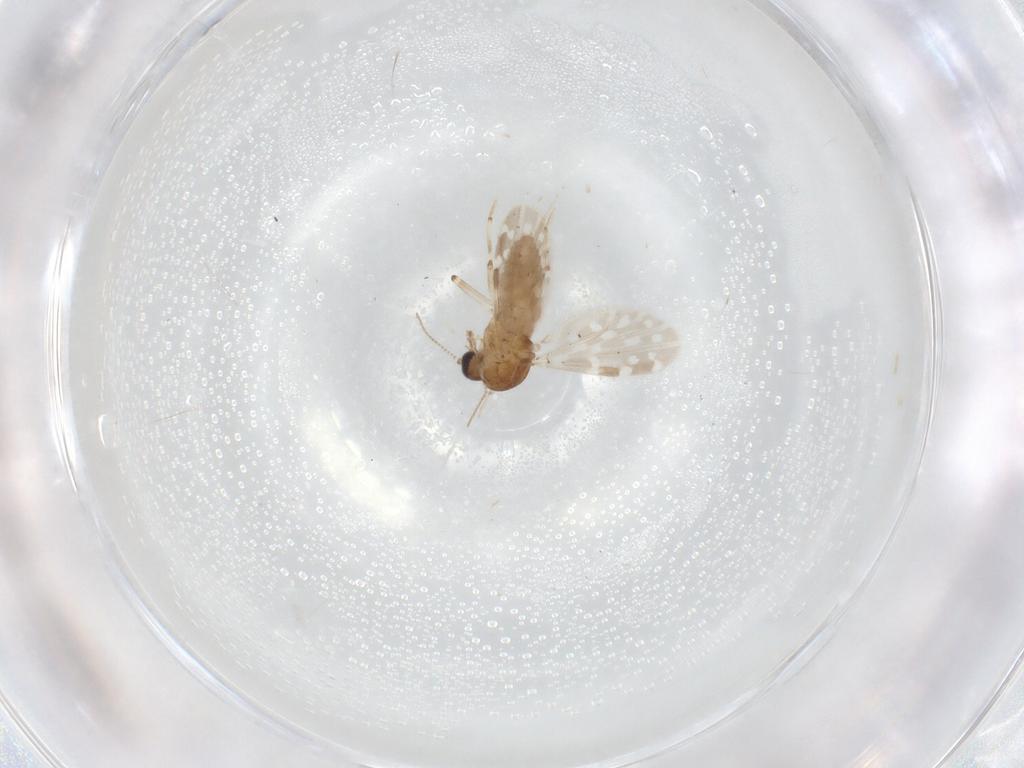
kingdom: Animalia
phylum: Arthropoda
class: Insecta
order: Diptera
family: Ceratopogonidae
